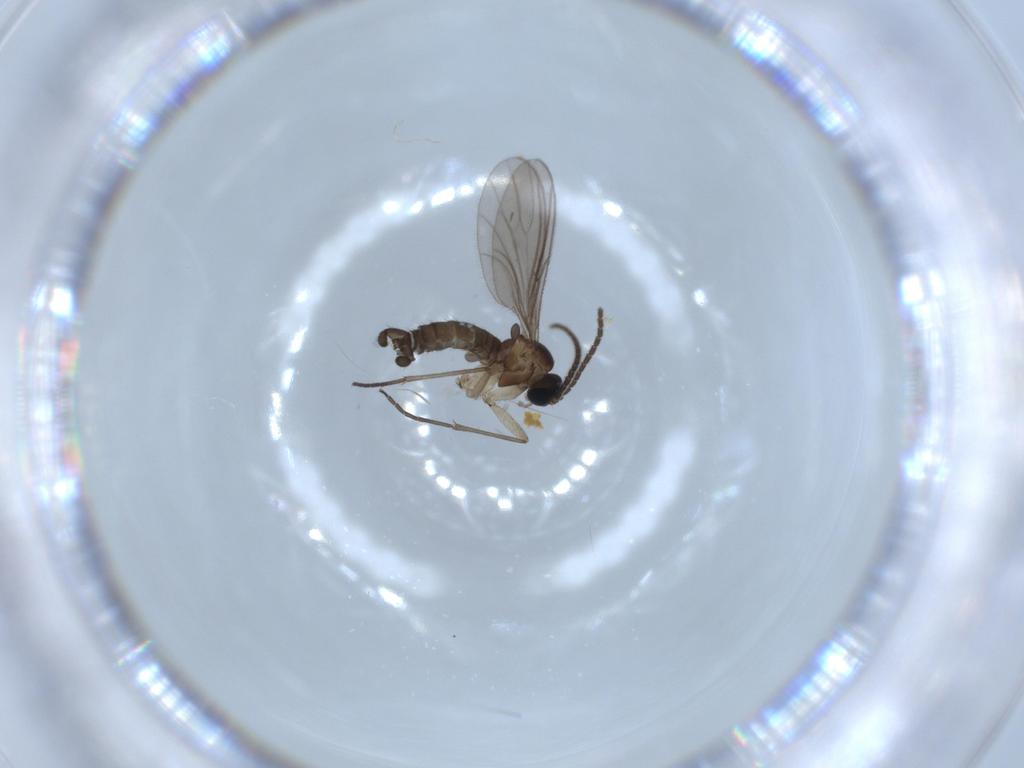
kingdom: Animalia
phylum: Arthropoda
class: Insecta
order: Diptera
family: Sciaridae
